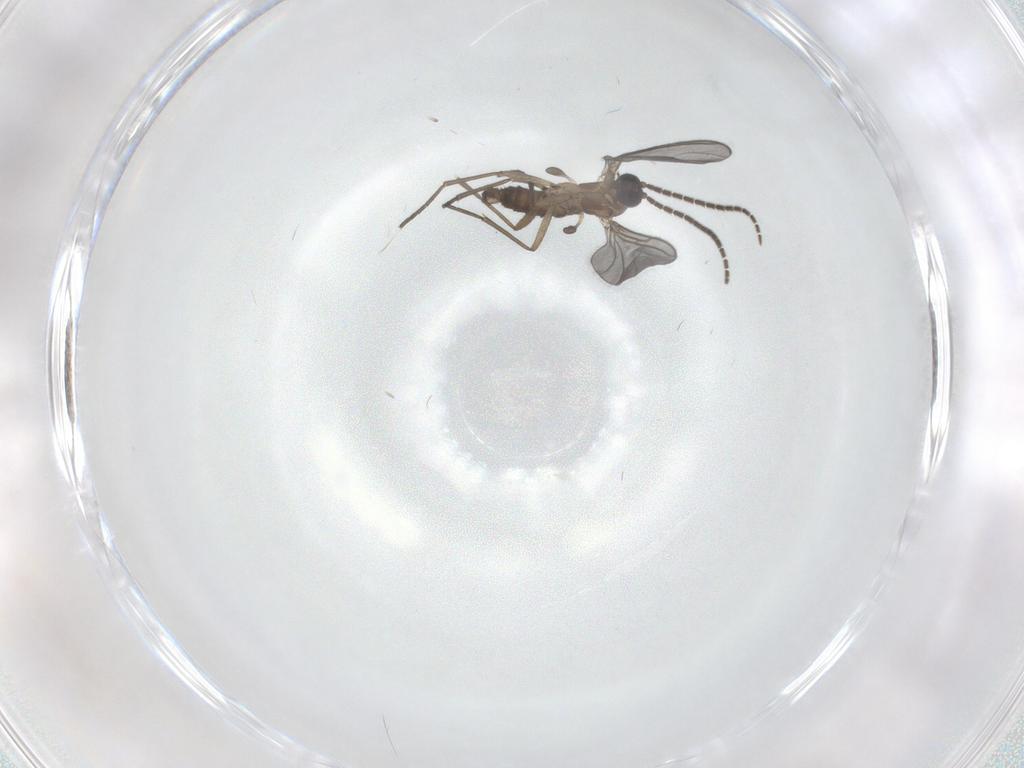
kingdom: Animalia
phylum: Arthropoda
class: Insecta
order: Diptera
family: Sciaridae
